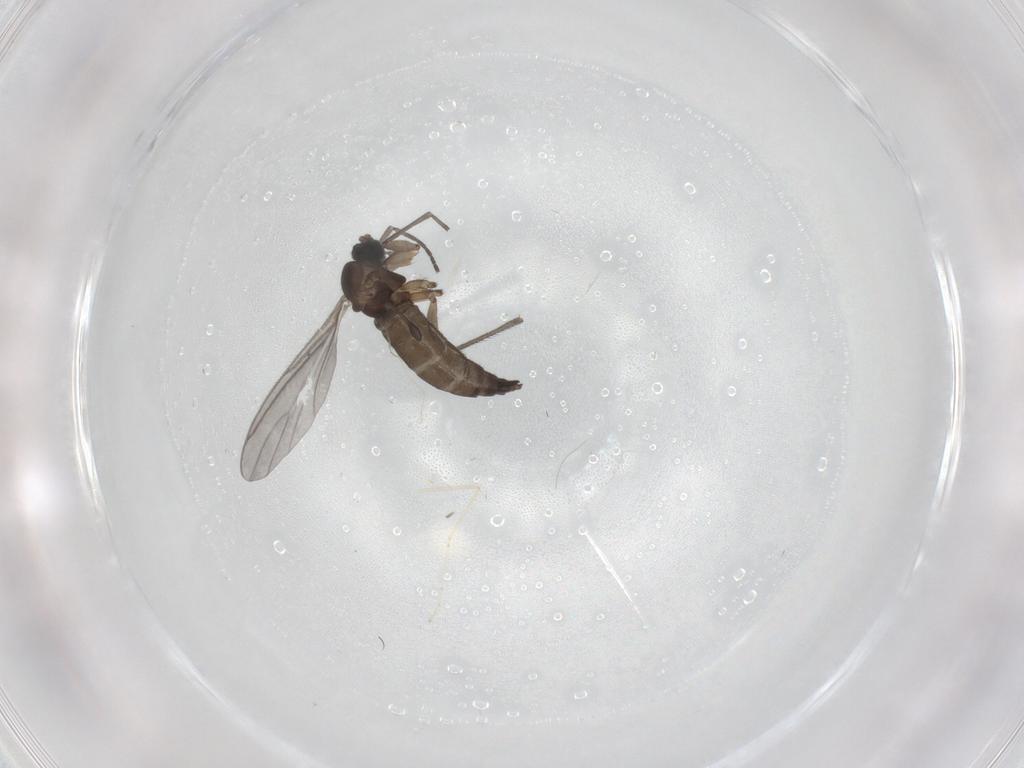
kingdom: Animalia
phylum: Arthropoda
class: Insecta
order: Diptera
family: Sciaridae
